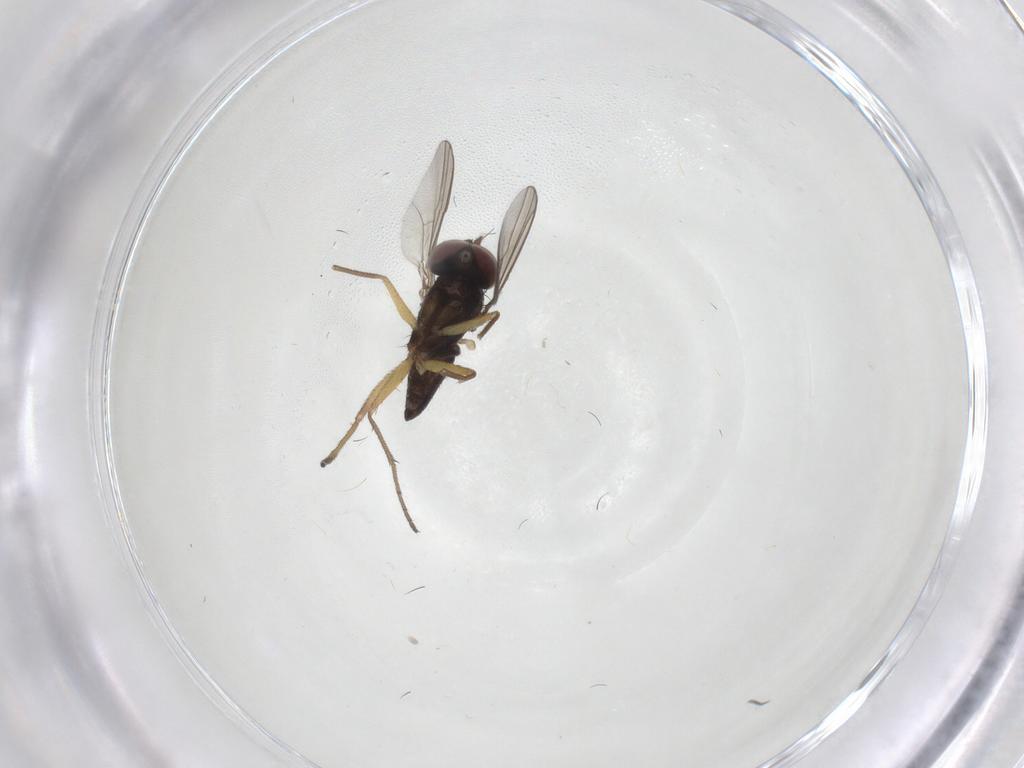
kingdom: Animalia
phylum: Arthropoda
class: Insecta
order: Diptera
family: Dolichopodidae
